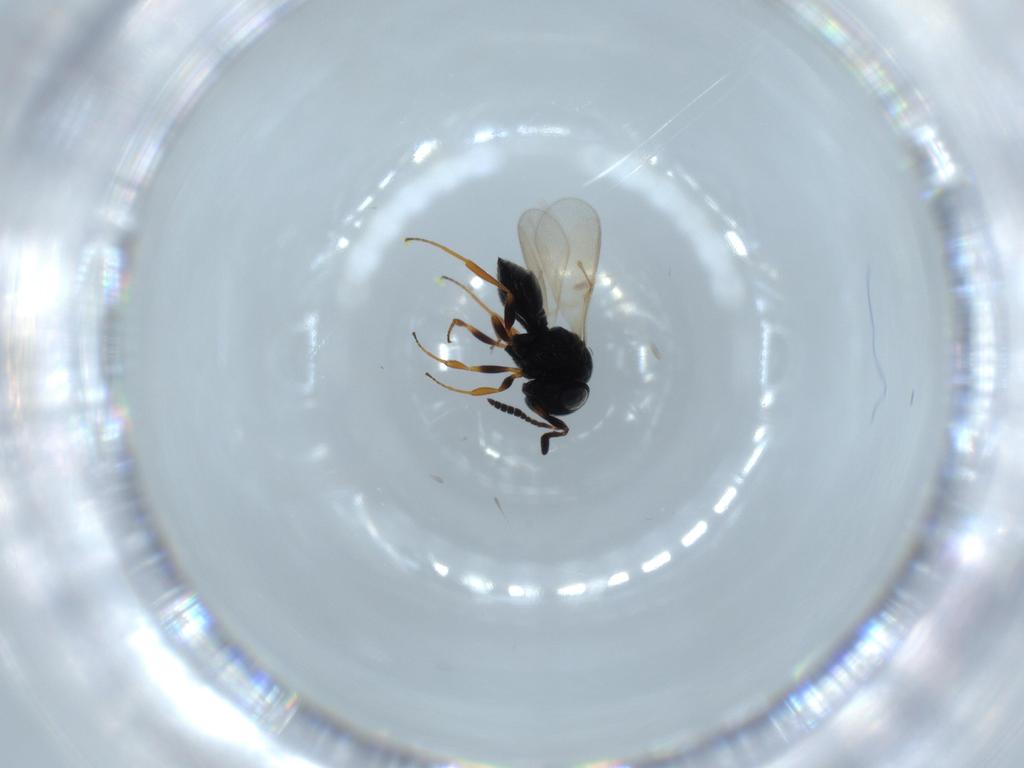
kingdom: Animalia
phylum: Arthropoda
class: Insecta
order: Hymenoptera
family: Scelionidae
